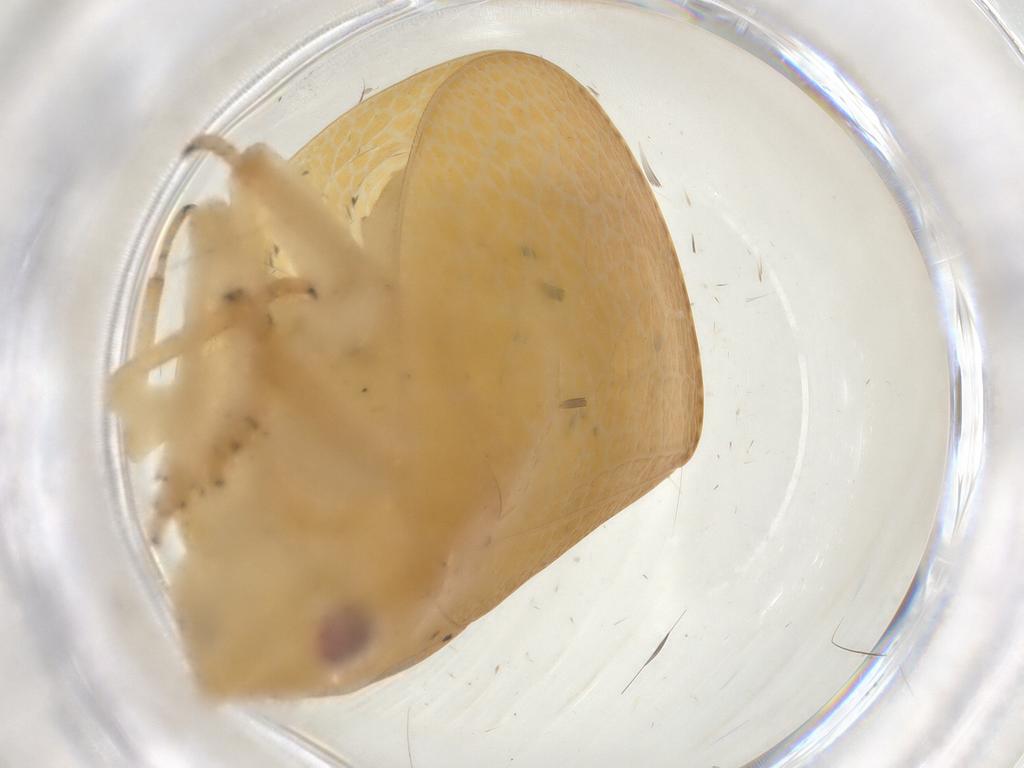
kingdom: Animalia
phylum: Arthropoda
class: Insecta
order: Hemiptera
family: Acanaloniidae
